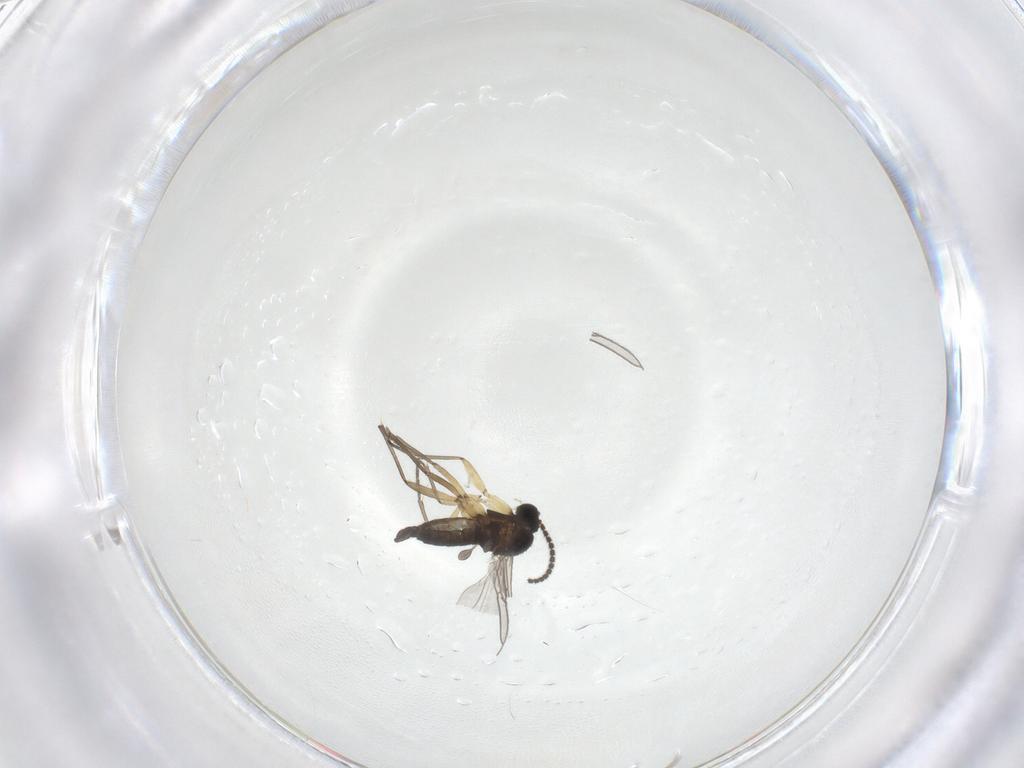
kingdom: Animalia
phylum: Arthropoda
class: Insecta
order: Diptera
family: Sciaridae
